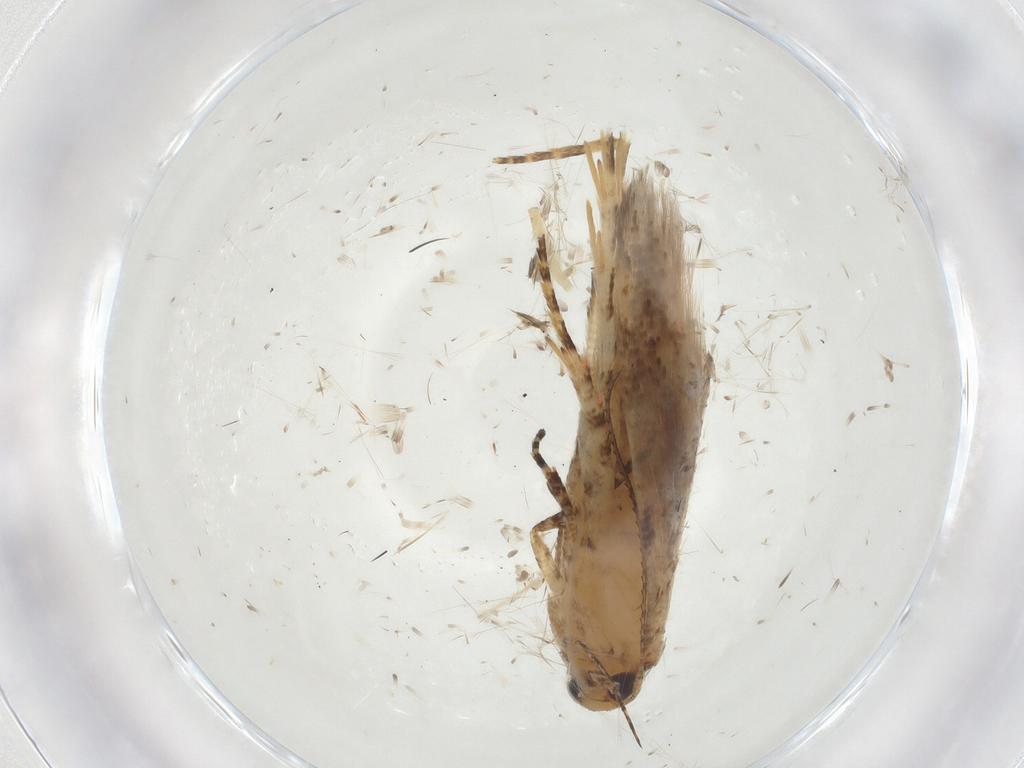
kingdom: Animalia
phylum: Arthropoda
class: Insecta
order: Lepidoptera
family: Gelechiidae
